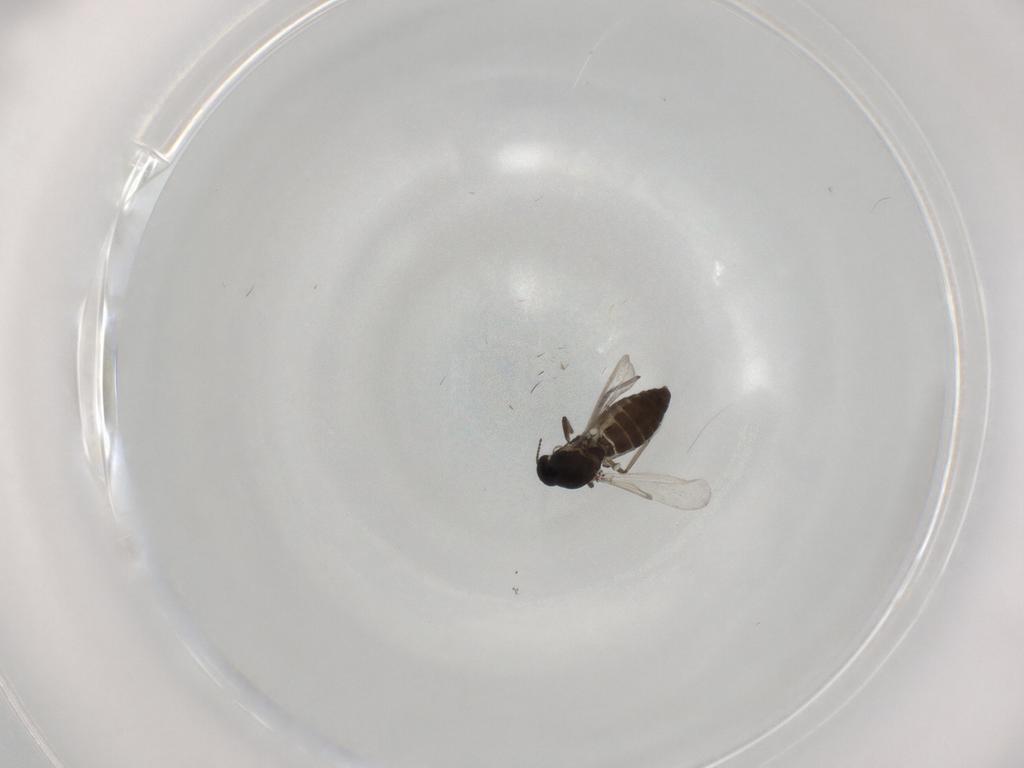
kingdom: Animalia
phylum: Arthropoda
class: Insecta
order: Diptera
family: Ceratopogonidae
